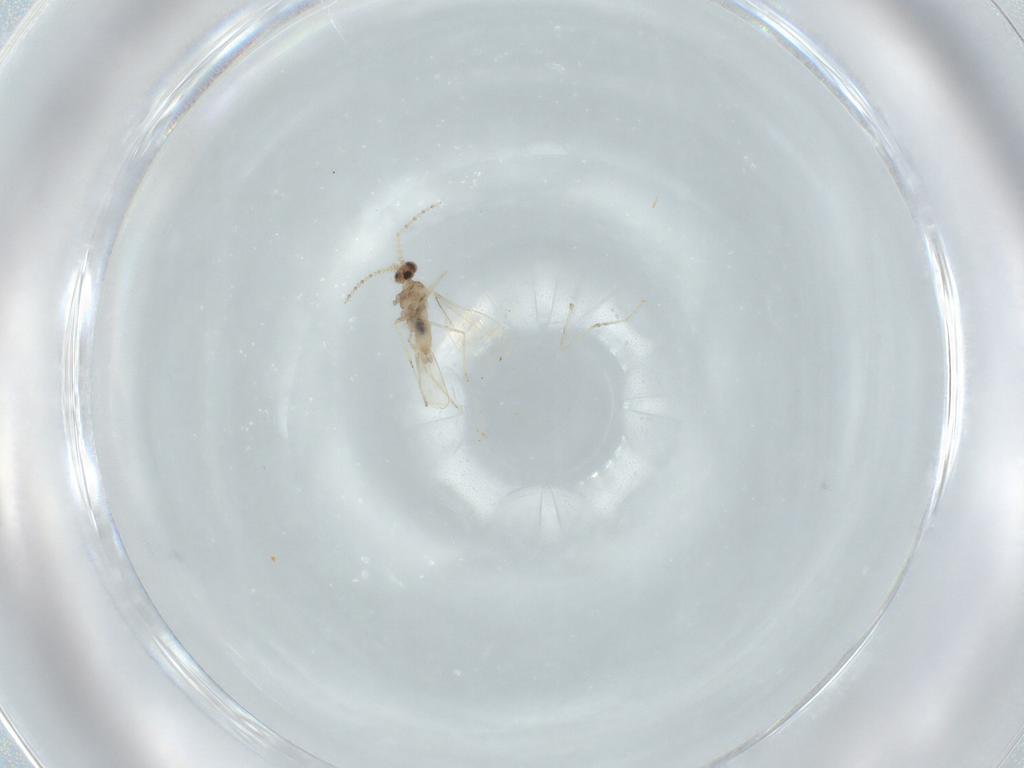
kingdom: Animalia
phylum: Arthropoda
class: Insecta
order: Diptera
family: Cecidomyiidae
